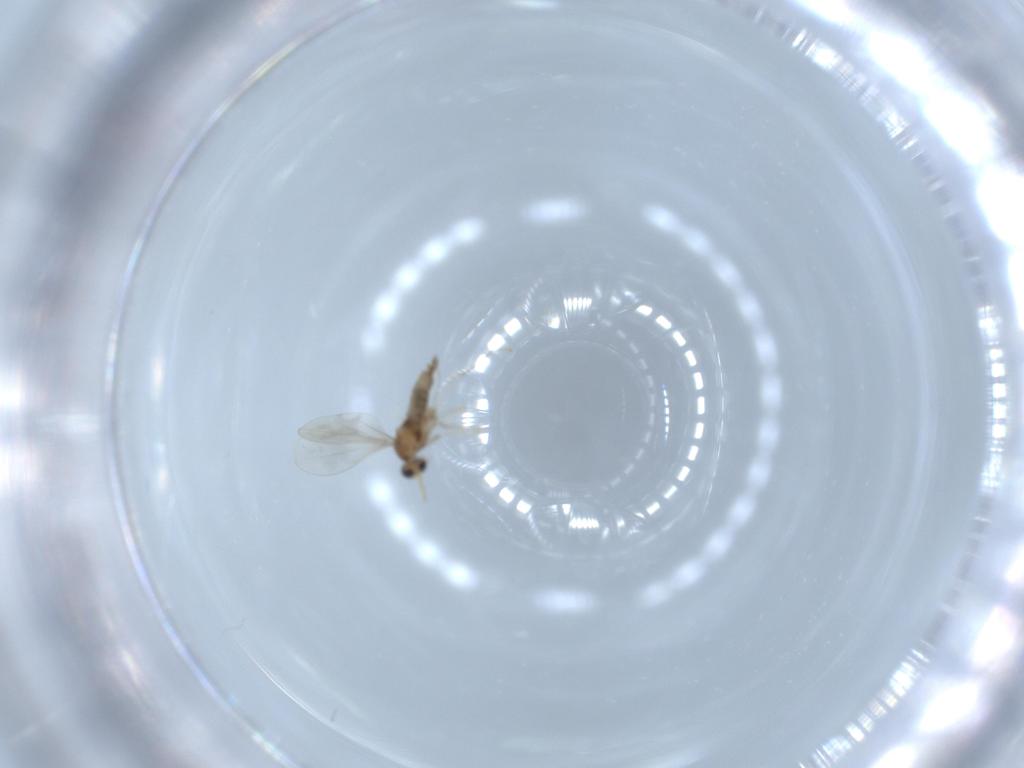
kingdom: Animalia
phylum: Arthropoda
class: Insecta
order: Diptera
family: Cecidomyiidae
